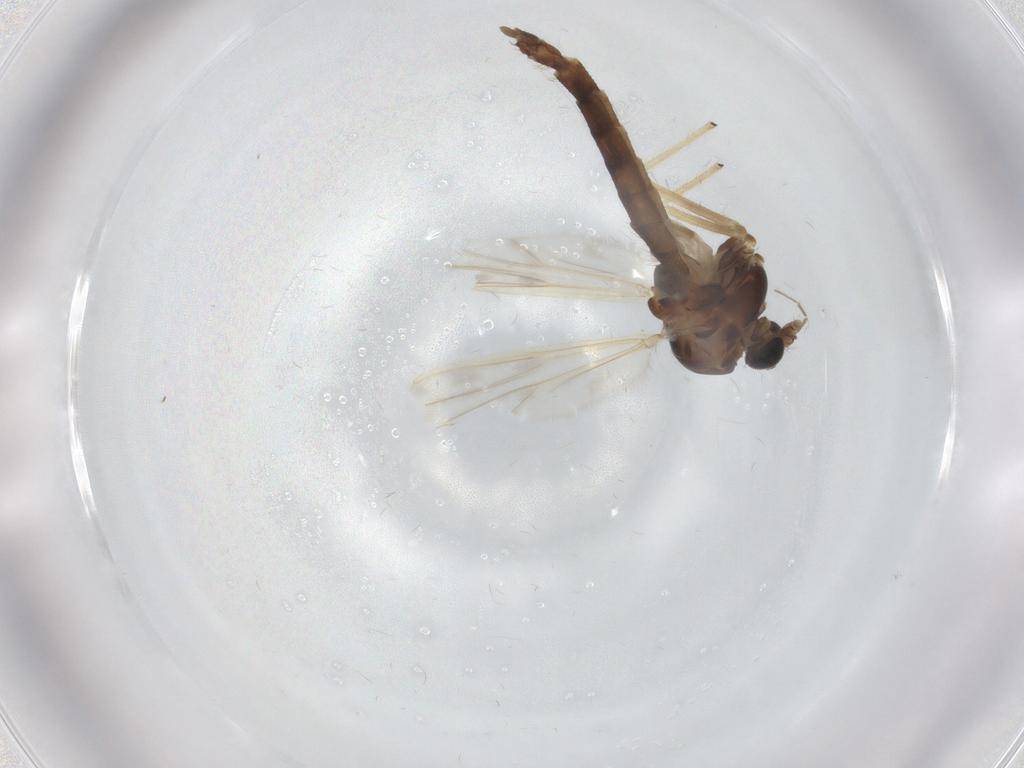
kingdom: Animalia
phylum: Arthropoda
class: Insecta
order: Diptera
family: Chironomidae
